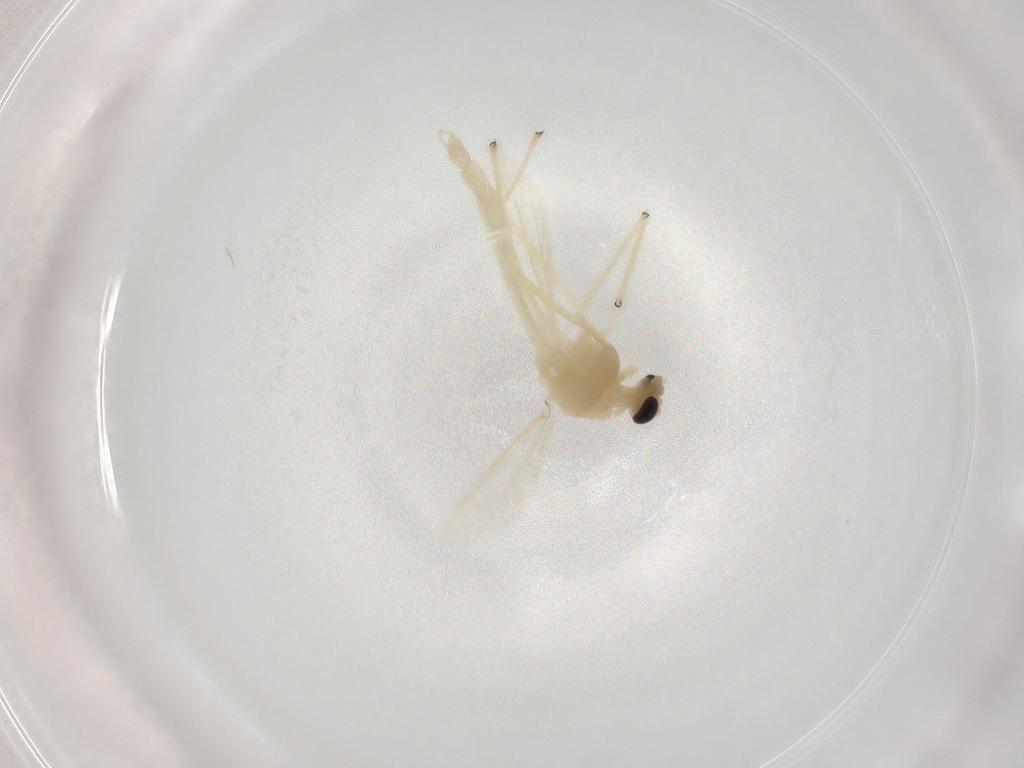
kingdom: Animalia
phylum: Arthropoda
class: Insecta
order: Diptera
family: Chironomidae
